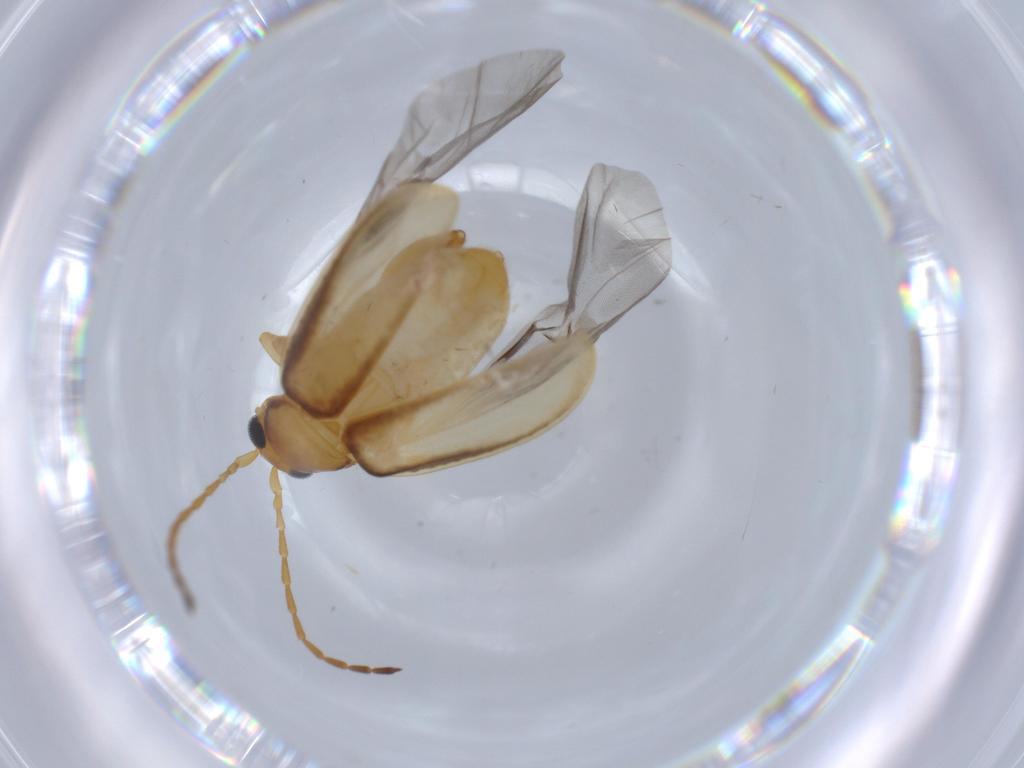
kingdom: Animalia
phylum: Arthropoda
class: Insecta
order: Coleoptera
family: Chrysomelidae
